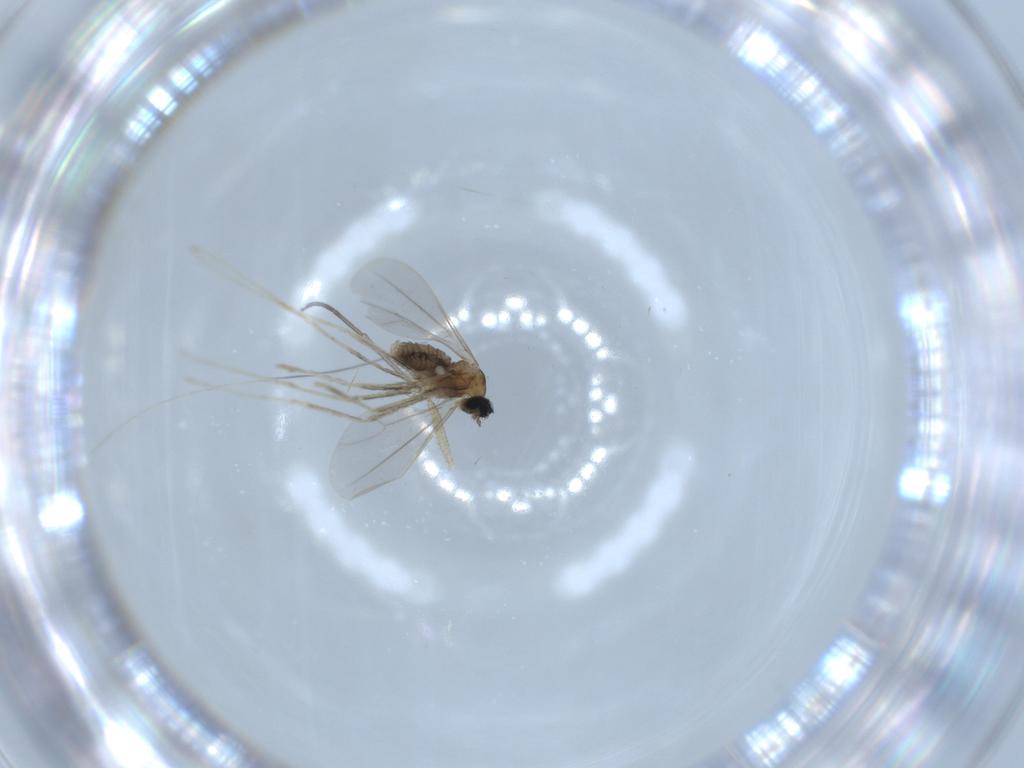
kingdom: Animalia
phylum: Arthropoda
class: Insecta
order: Diptera
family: Cecidomyiidae
